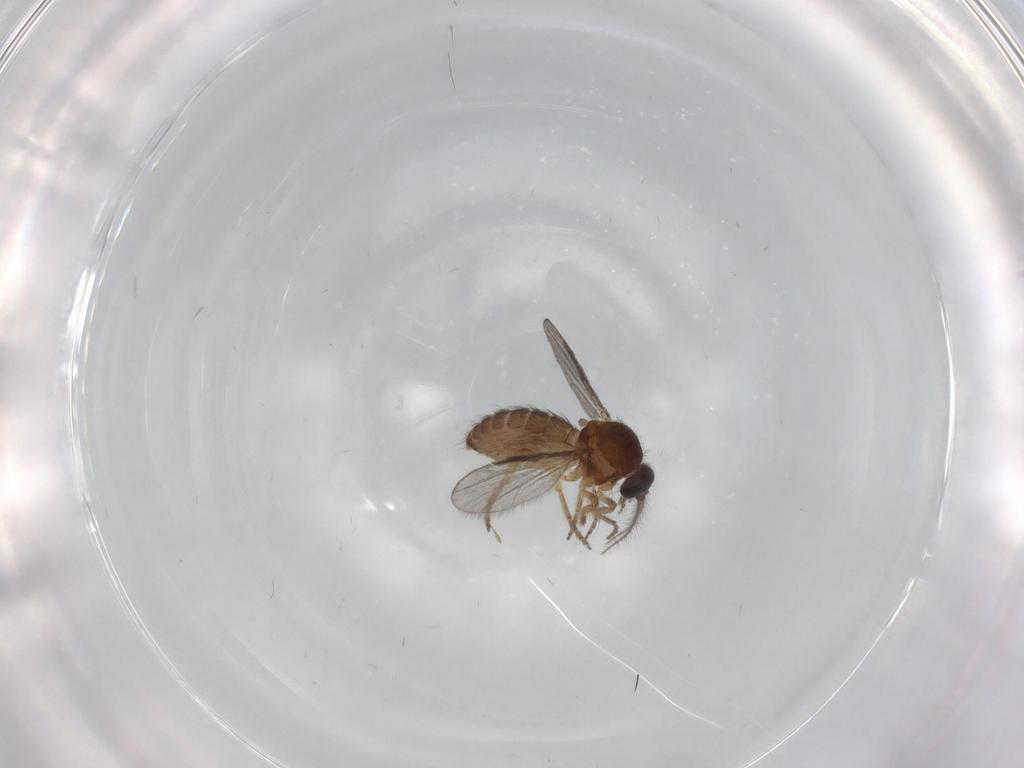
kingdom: Animalia
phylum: Arthropoda
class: Insecta
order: Diptera
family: Ceratopogonidae
